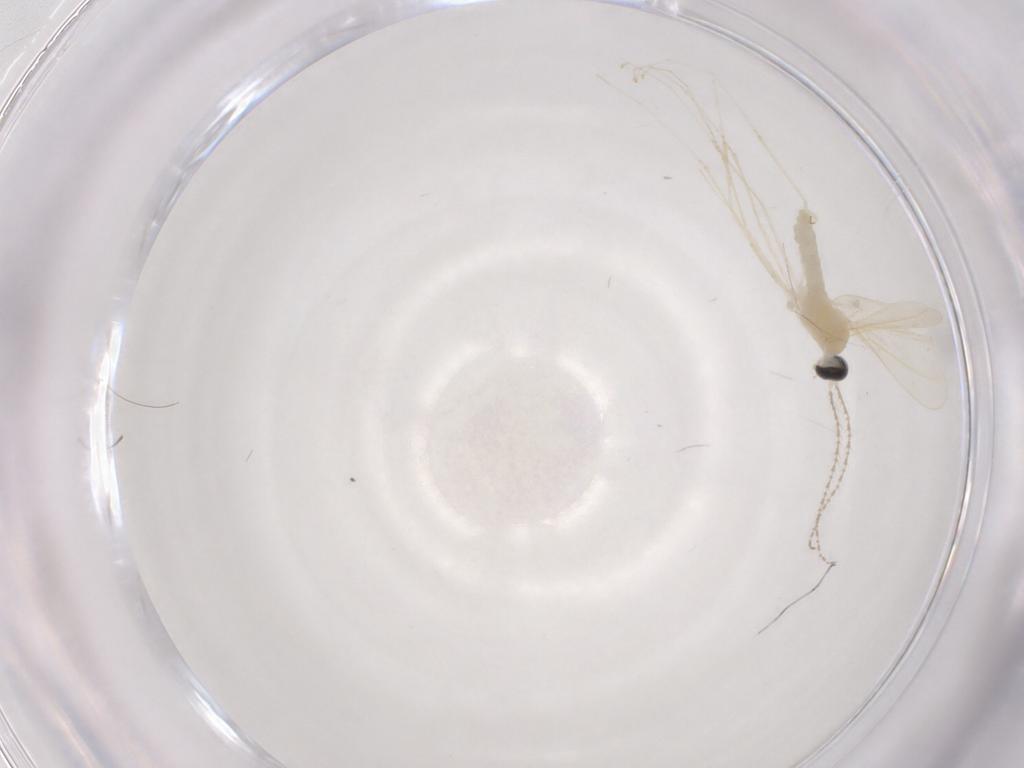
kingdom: Animalia
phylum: Arthropoda
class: Insecta
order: Diptera
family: Cecidomyiidae
